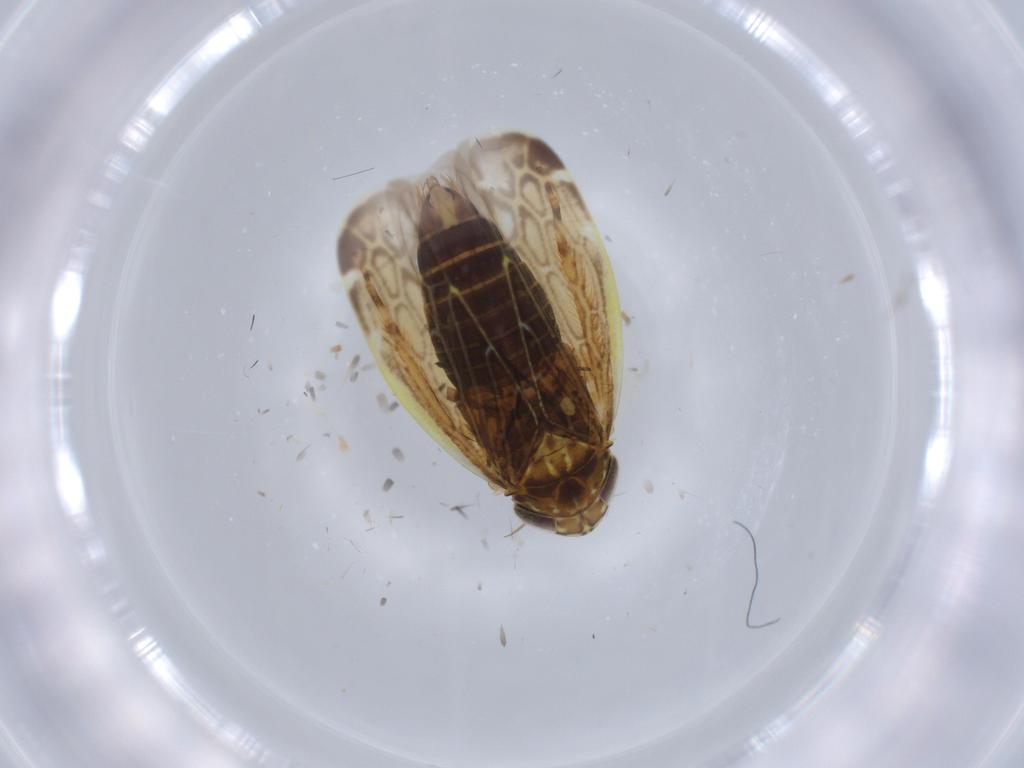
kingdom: Animalia
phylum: Arthropoda
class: Insecta
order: Hemiptera
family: Cicadellidae
